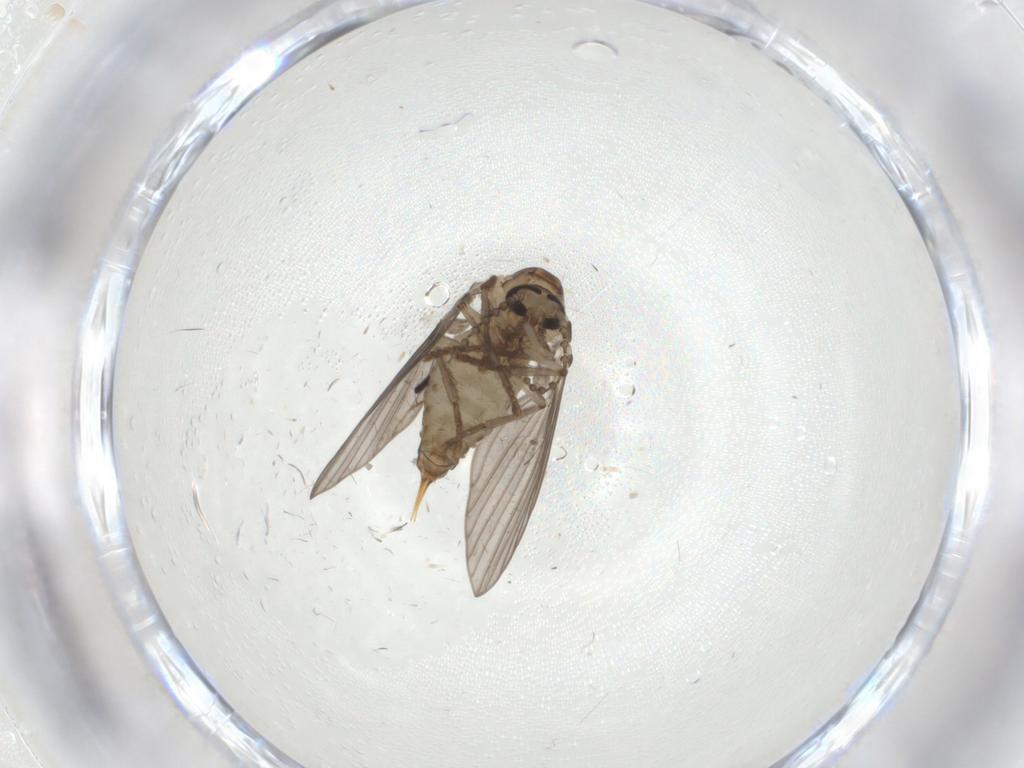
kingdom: Animalia
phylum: Arthropoda
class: Insecta
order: Diptera
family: Psychodidae
